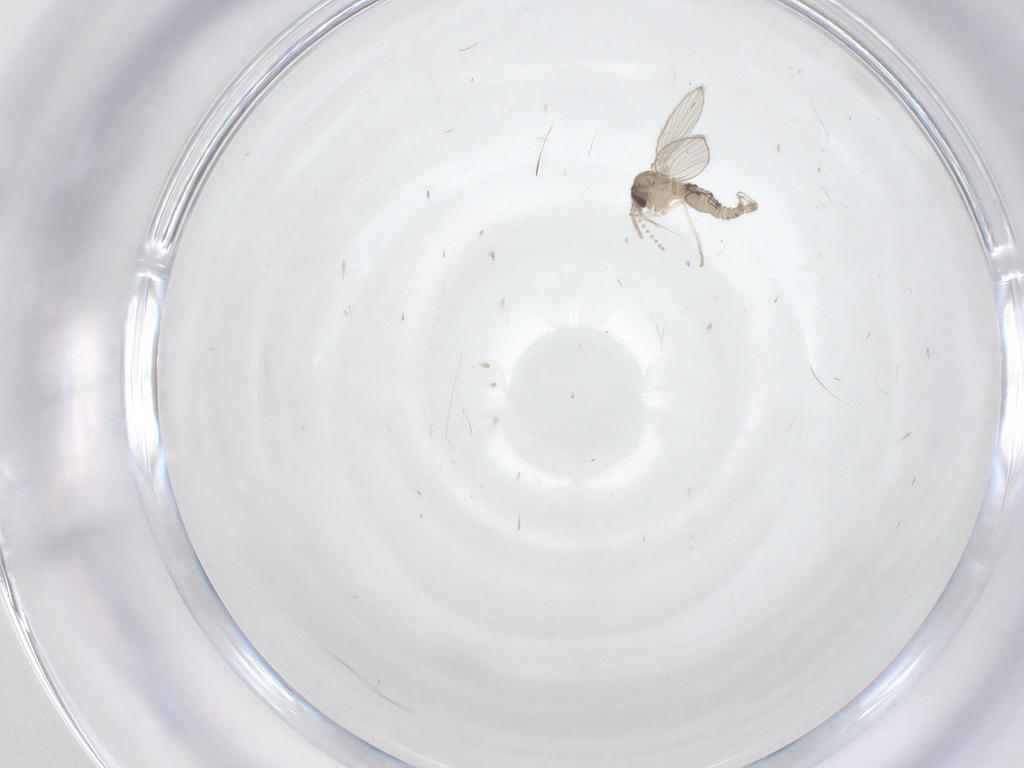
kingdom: Animalia
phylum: Arthropoda
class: Insecta
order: Diptera
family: Psychodidae
